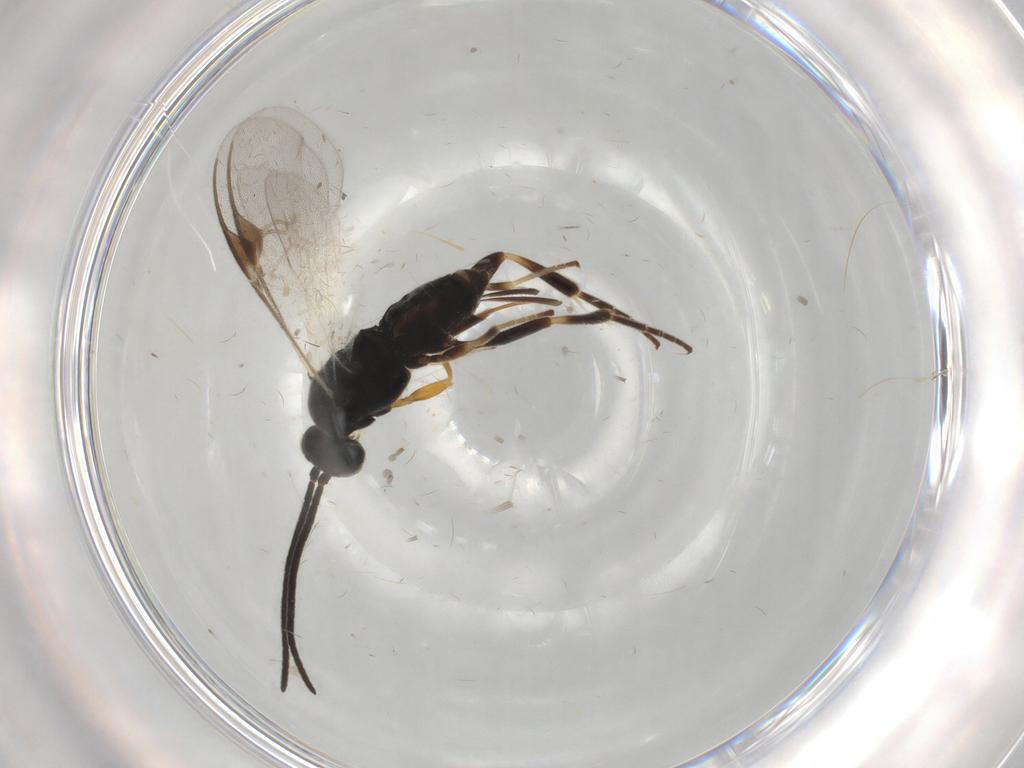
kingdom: Animalia
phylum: Arthropoda
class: Insecta
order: Hymenoptera
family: Braconidae
